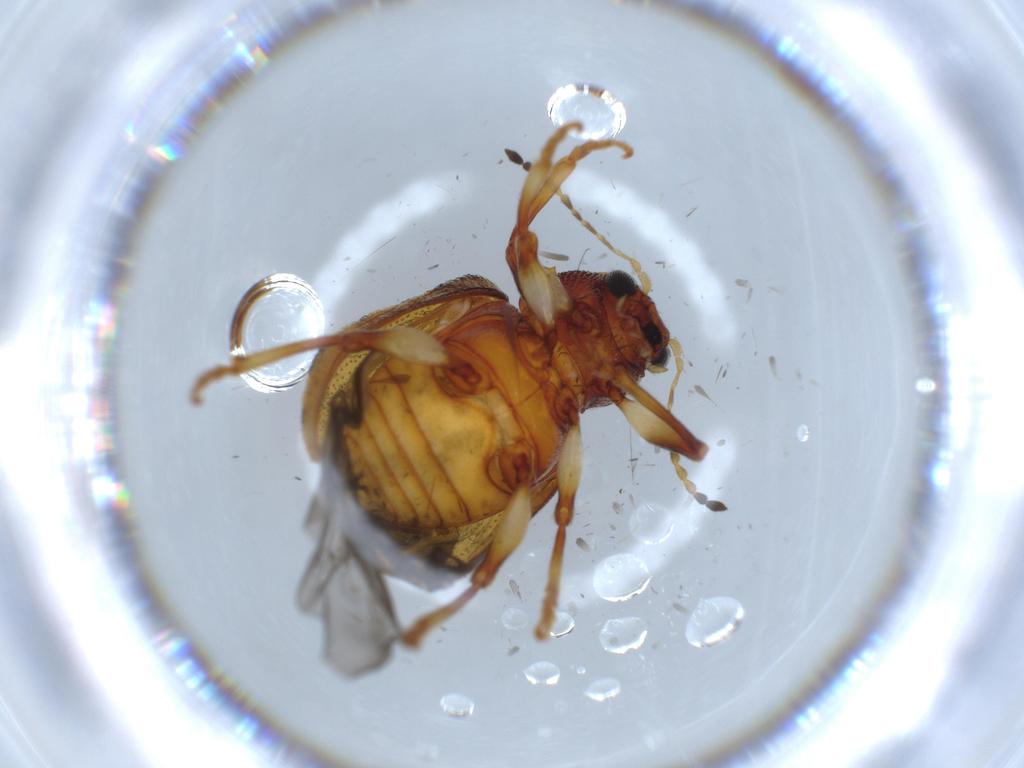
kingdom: Animalia
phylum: Arthropoda
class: Insecta
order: Coleoptera
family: Chrysomelidae
